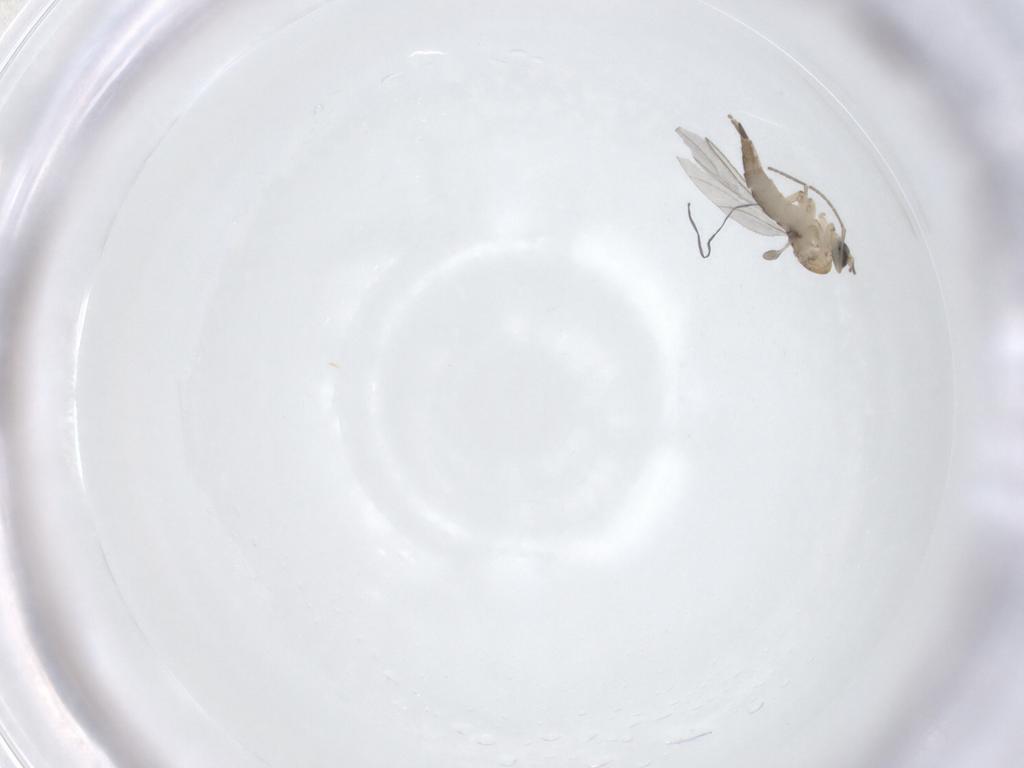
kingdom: Animalia
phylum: Arthropoda
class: Insecta
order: Diptera
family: Sciaridae
